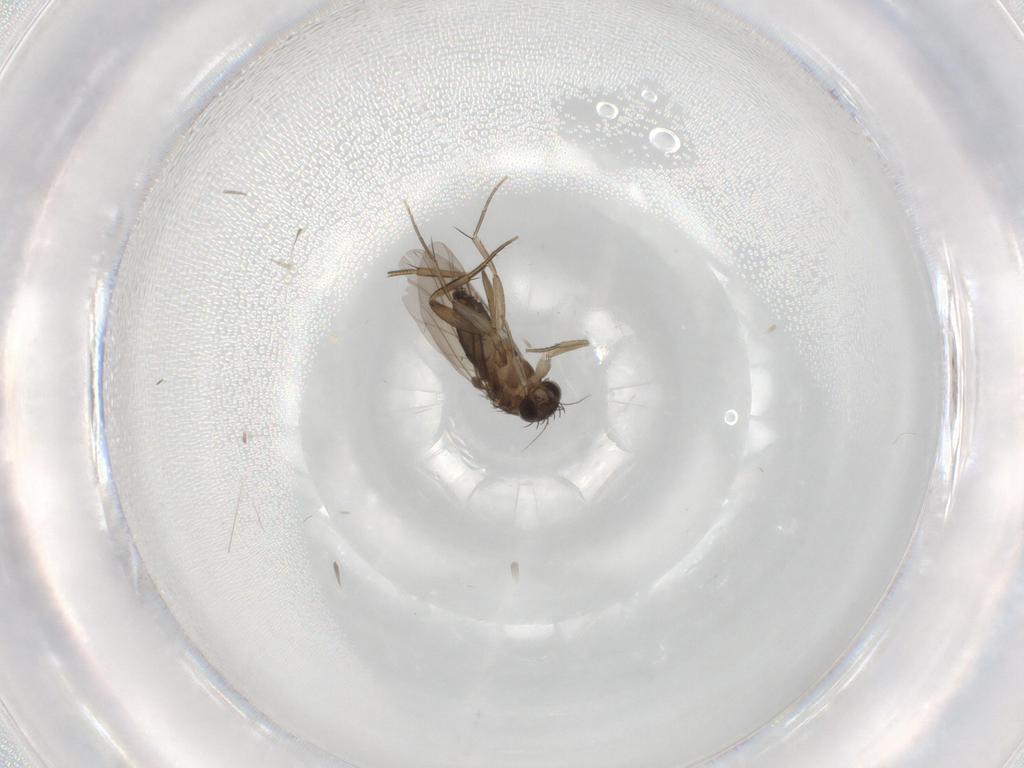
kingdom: Animalia
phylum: Arthropoda
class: Insecta
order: Diptera
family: Phoridae
